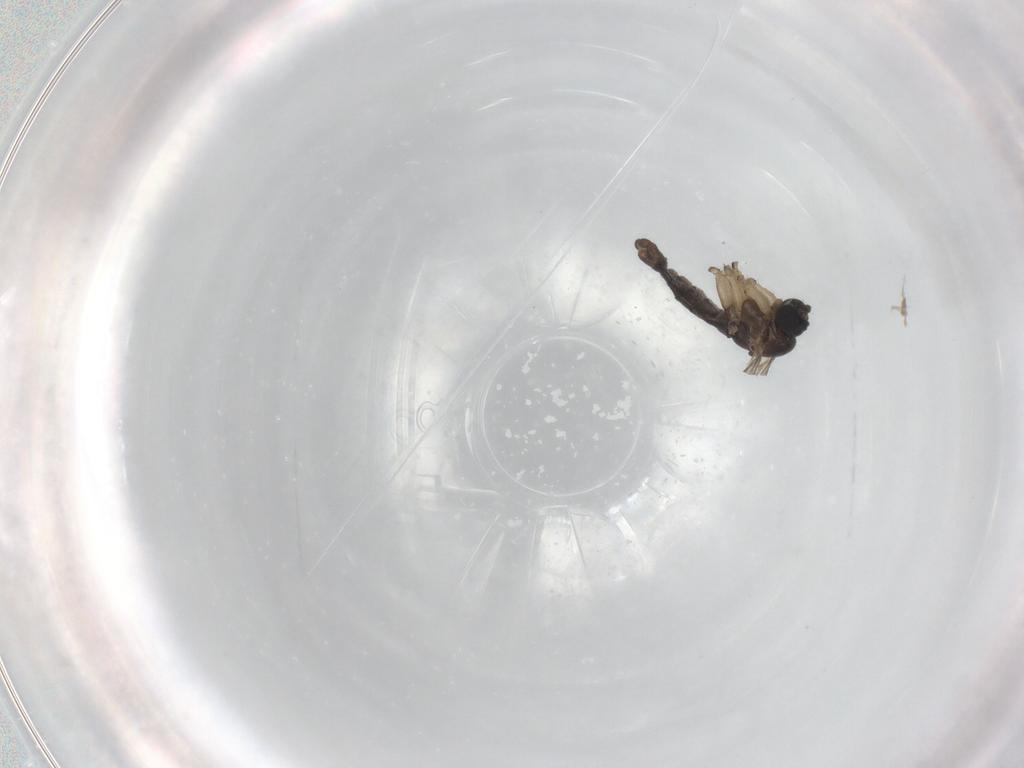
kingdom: Animalia
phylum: Arthropoda
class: Insecta
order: Diptera
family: Sciaridae
